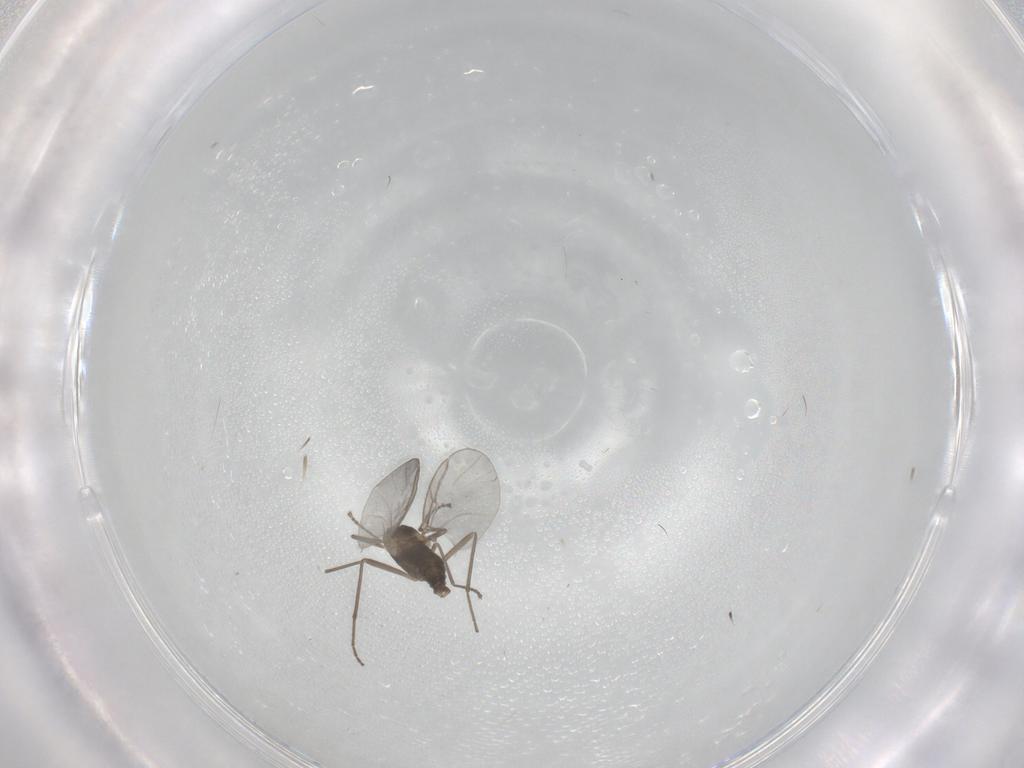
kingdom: Animalia
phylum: Arthropoda
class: Insecta
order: Diptera
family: Cecidomyiidae
